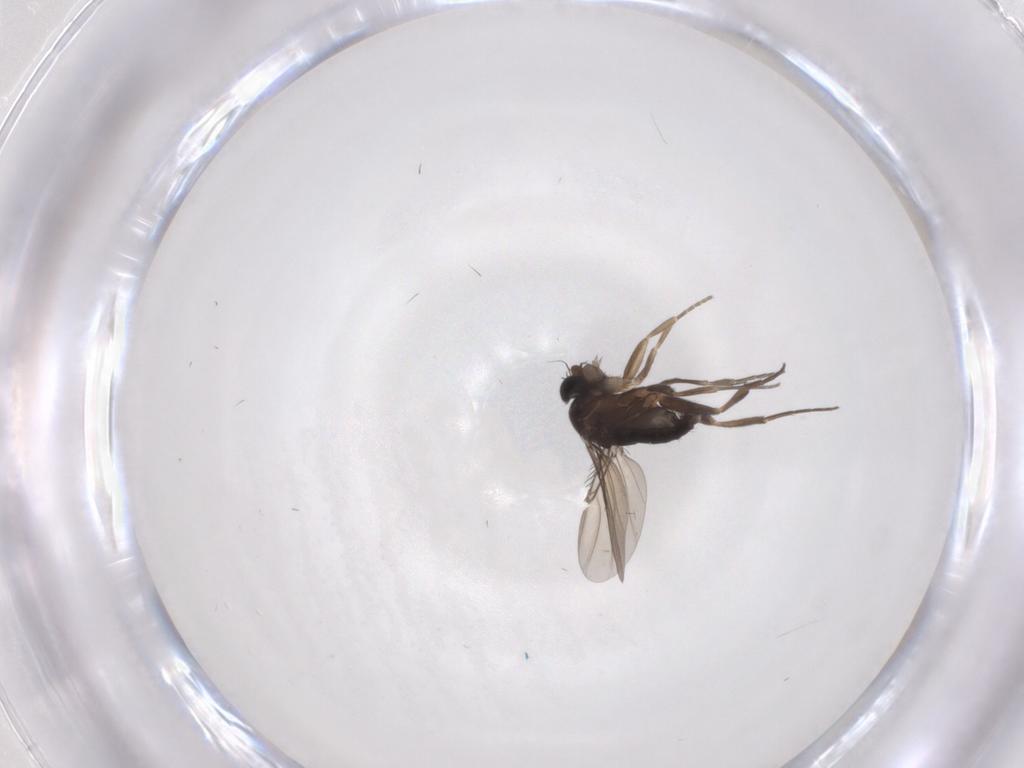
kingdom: Animalia
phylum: Arthropoda
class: Insecta
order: Diptera
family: Phoridae
